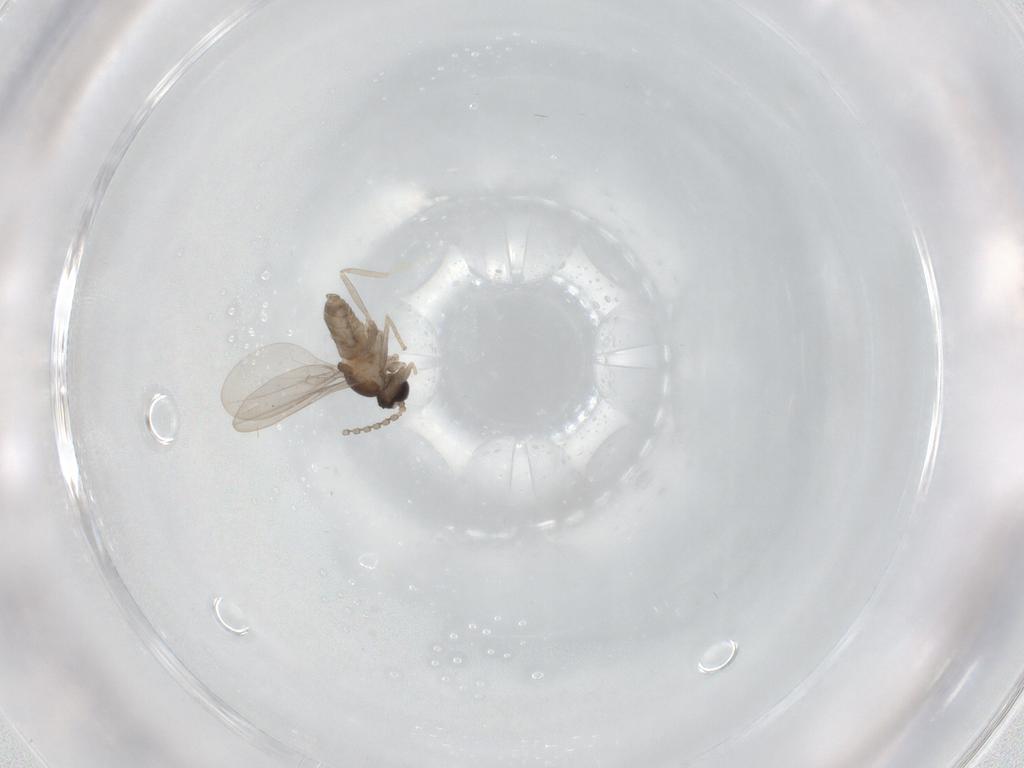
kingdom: Animalia
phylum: Arthropoda
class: Insecta
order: Diptera
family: Cecidomyiidae
